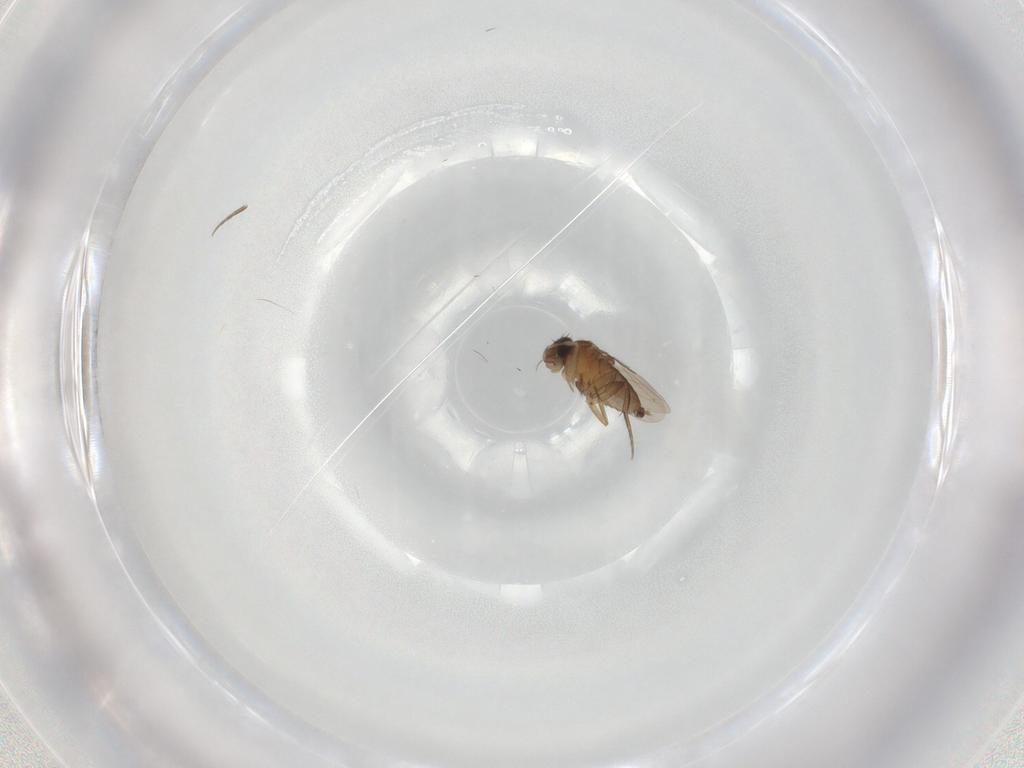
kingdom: Animalia
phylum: Arthropoda
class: Insecta
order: Diptera
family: Phoridae
